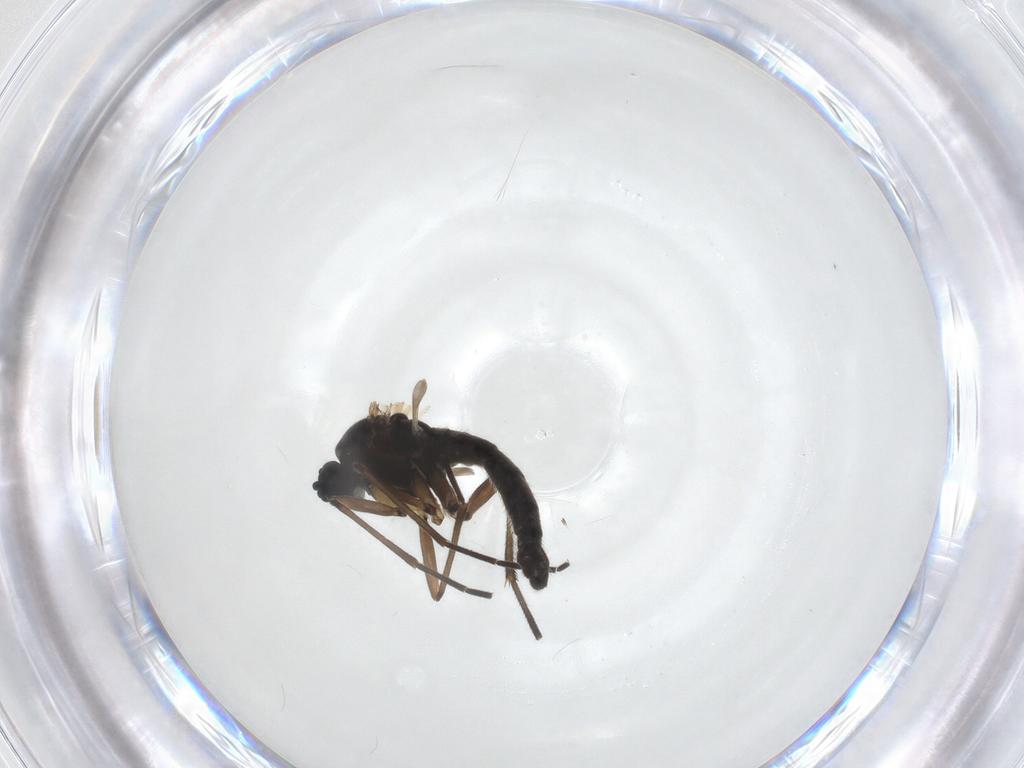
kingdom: Animalia
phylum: Arthropoda
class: Insecta
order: Diptera
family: Sciaridae
